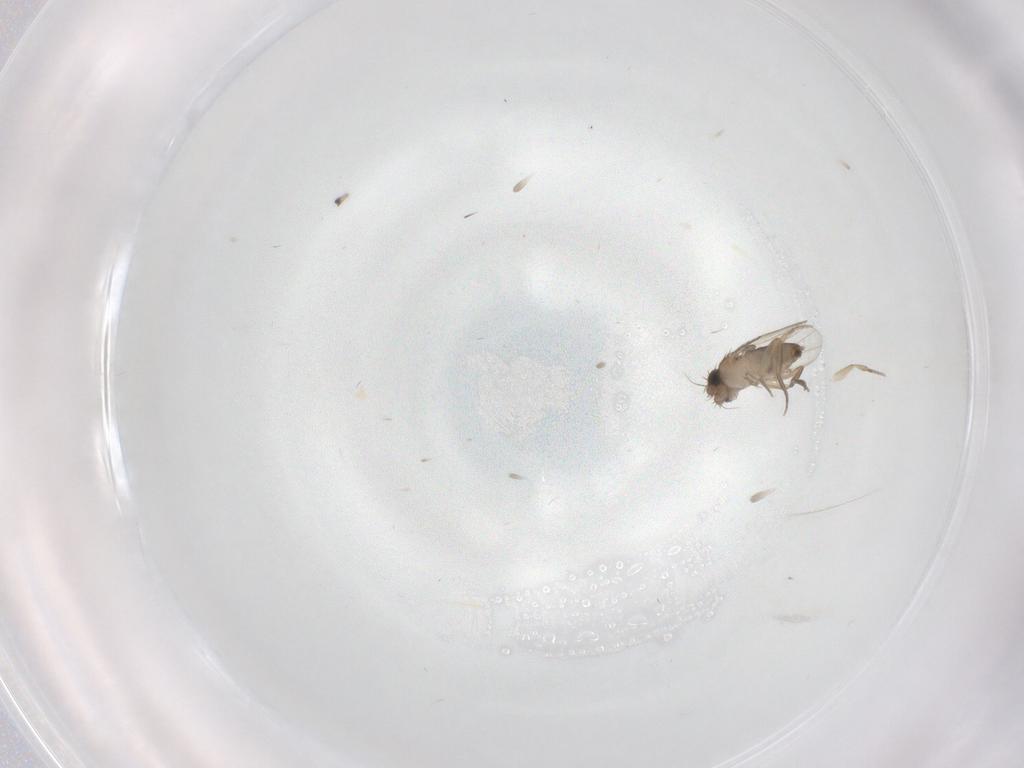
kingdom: Animalia
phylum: Arthropoda
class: Insecta
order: Diptera
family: Phoridae
